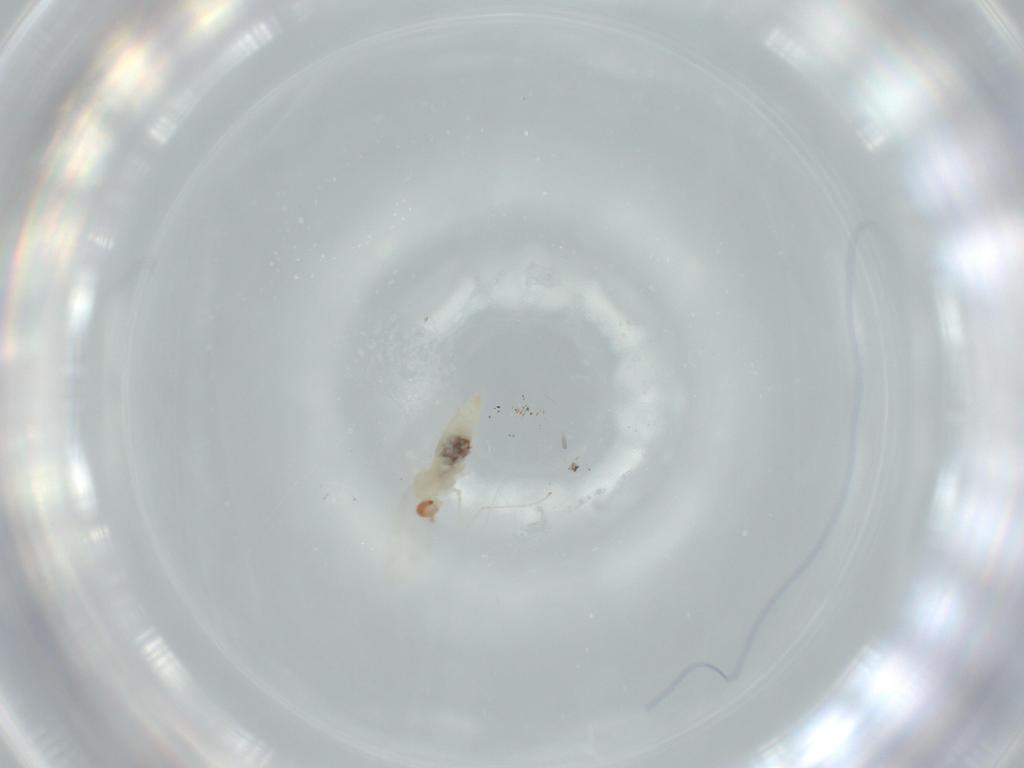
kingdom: Animalia
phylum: Arthropoda
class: Insecta
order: Diptera
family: Cecidomyiidae
